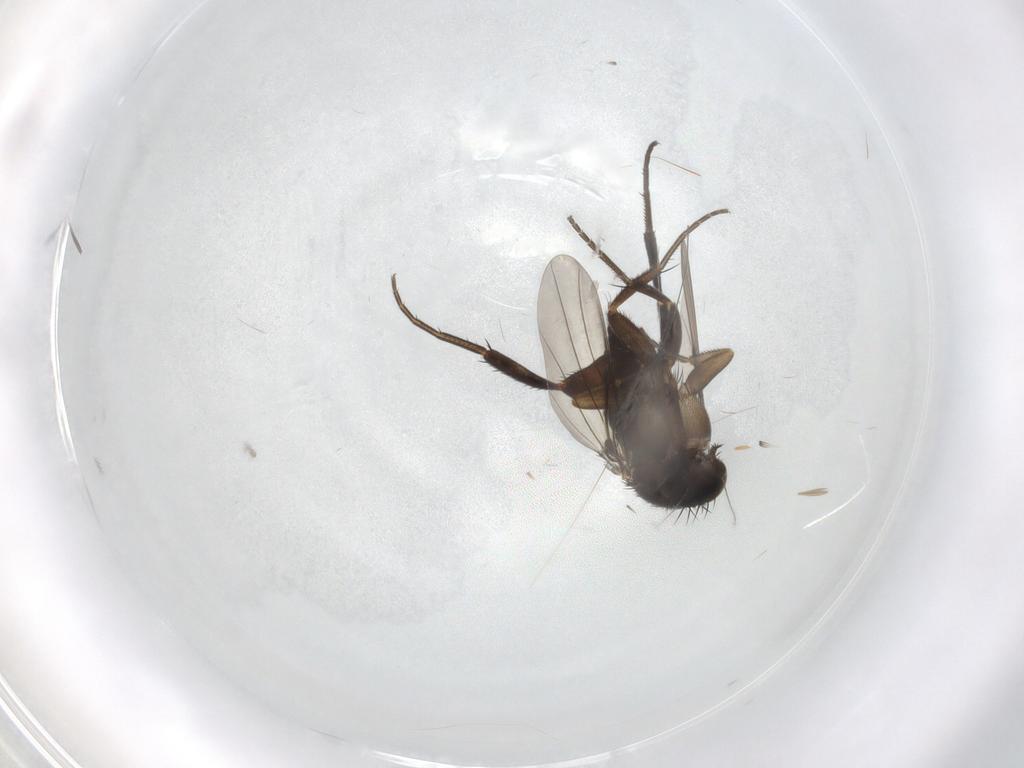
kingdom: Animalia
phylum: Arthropoda
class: Insecta
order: Diptera
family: Phoridae
